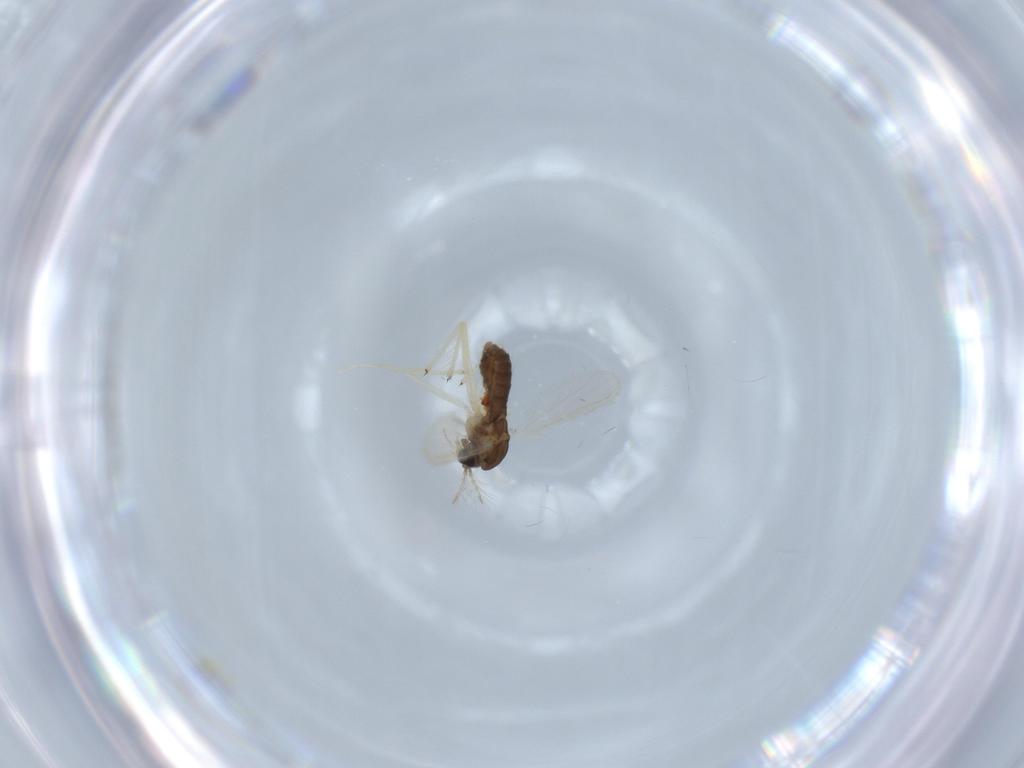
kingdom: Animalia
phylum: Arthropoda
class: Insecta
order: Diptera
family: Chironomidae
